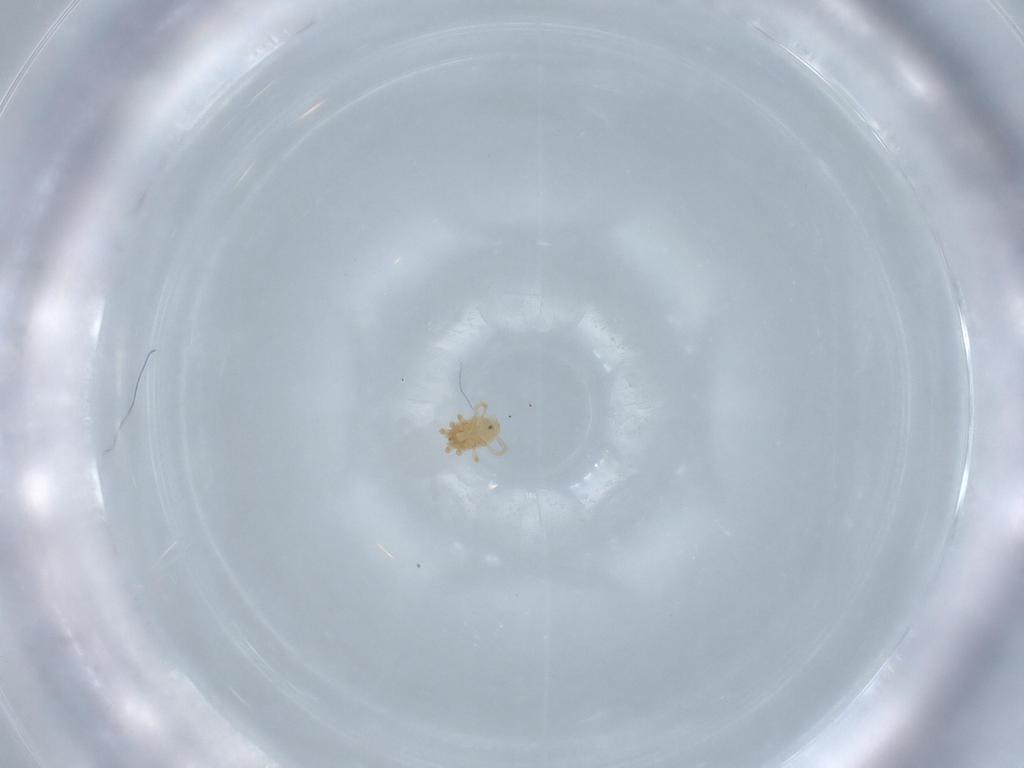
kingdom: Animalia
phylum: Arthropoda
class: Arachnida
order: Mesostigmata
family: Blattisociidae
